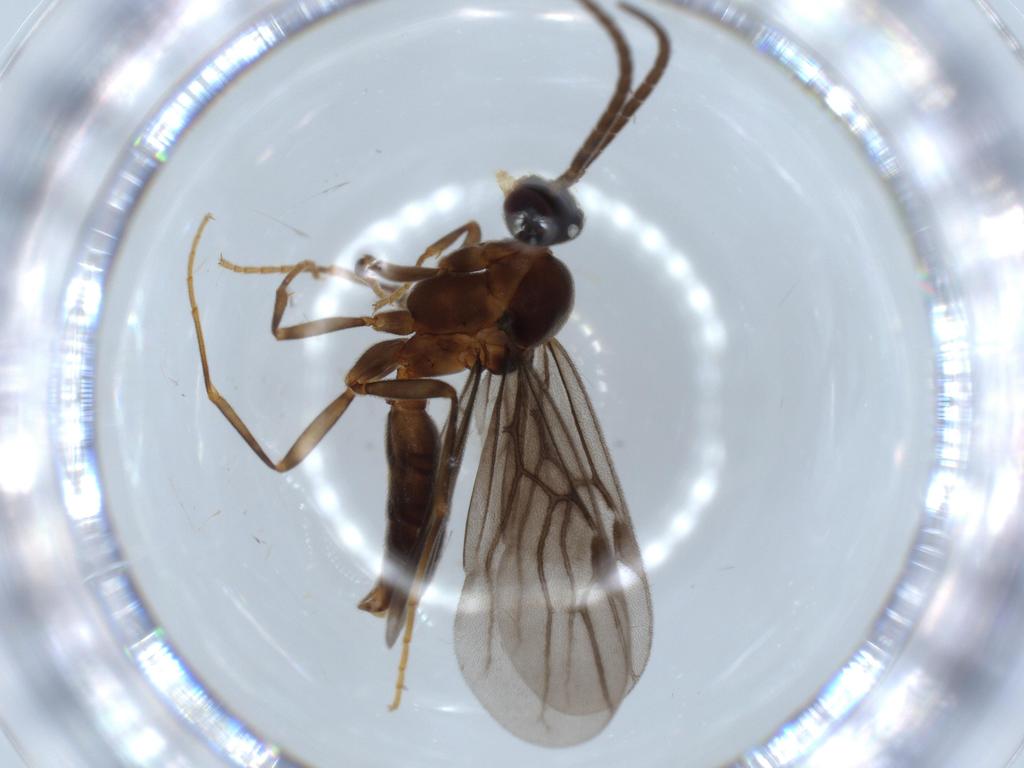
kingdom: Animalia
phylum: Arthropoda
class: Insecta
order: Hymenoptera
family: Formicidae
